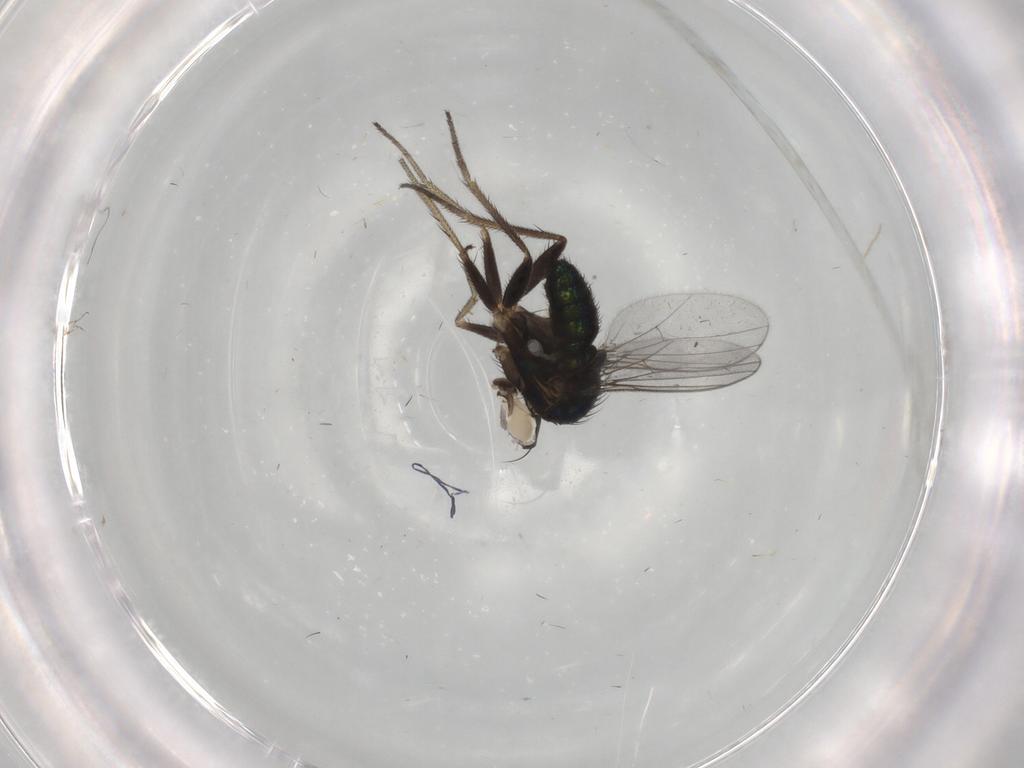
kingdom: Animalia
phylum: Arthropoda
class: Insecta
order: Diptera
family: Dolichopodidae
